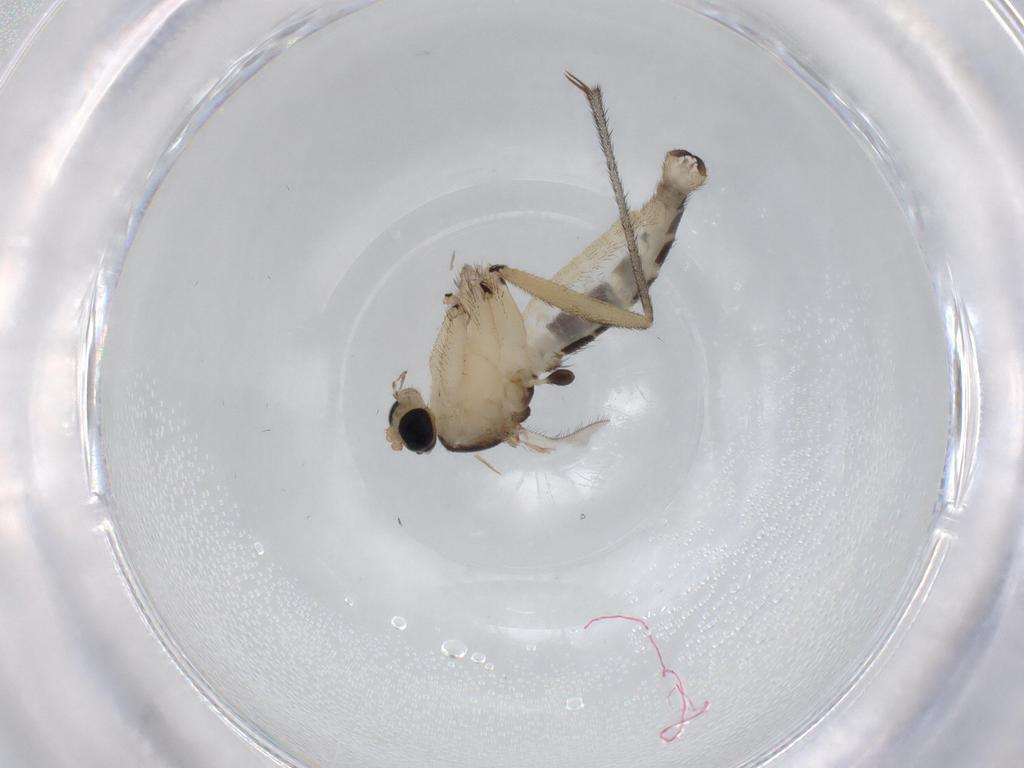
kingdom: Animalia
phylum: Arthropoda
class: Insecta
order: Diptera
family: Sciaridae
